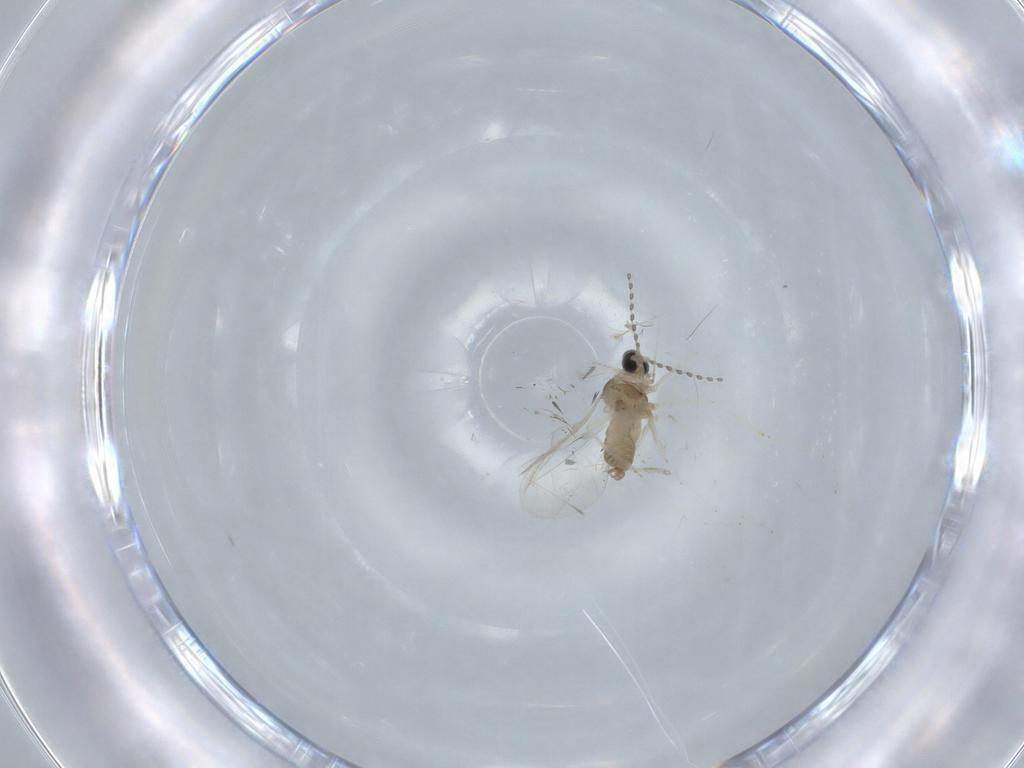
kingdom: Animalia
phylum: Arthropoda
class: Insecta
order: Diptera
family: Cecidomyiidae
